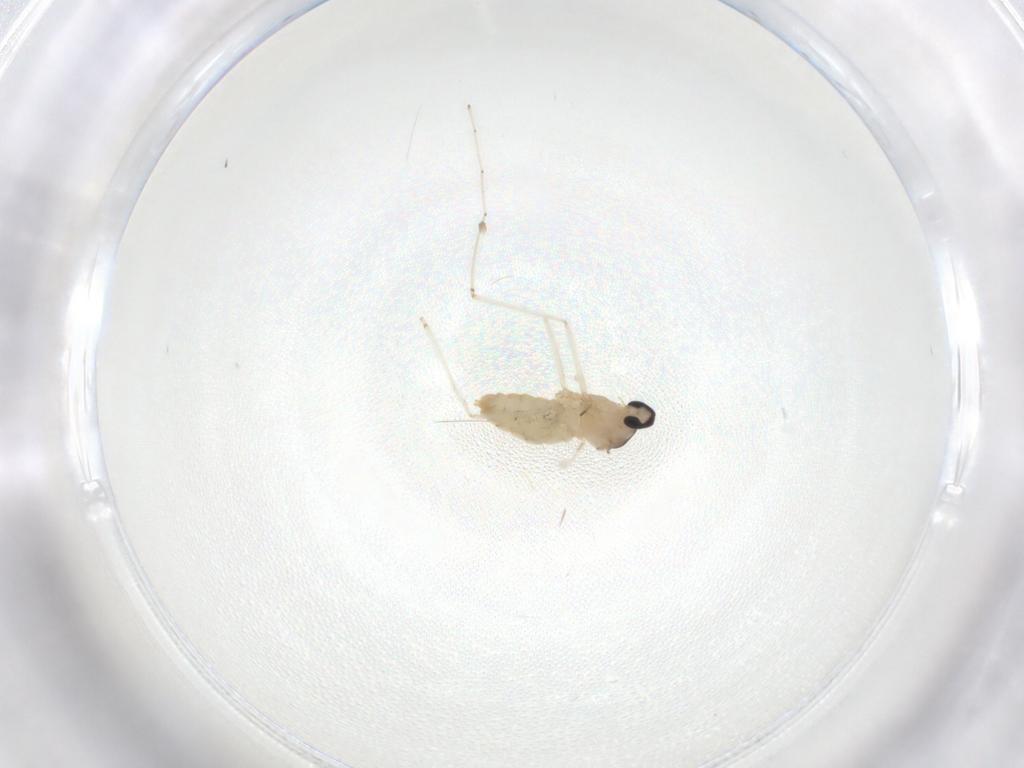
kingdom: Animalia
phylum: Arthropoda
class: Insecta
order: Diptera
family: Cecidomyiidae
